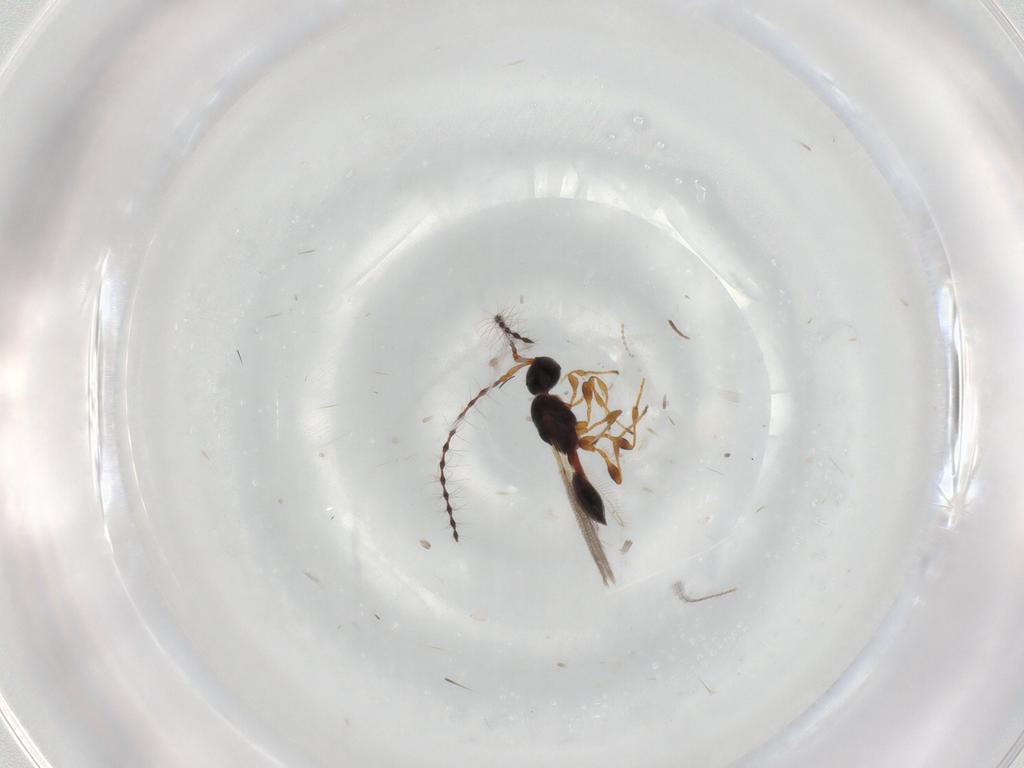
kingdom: Animalia
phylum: Arthropoda
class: Insecta
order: Hymenoptera
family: Diapriidae
